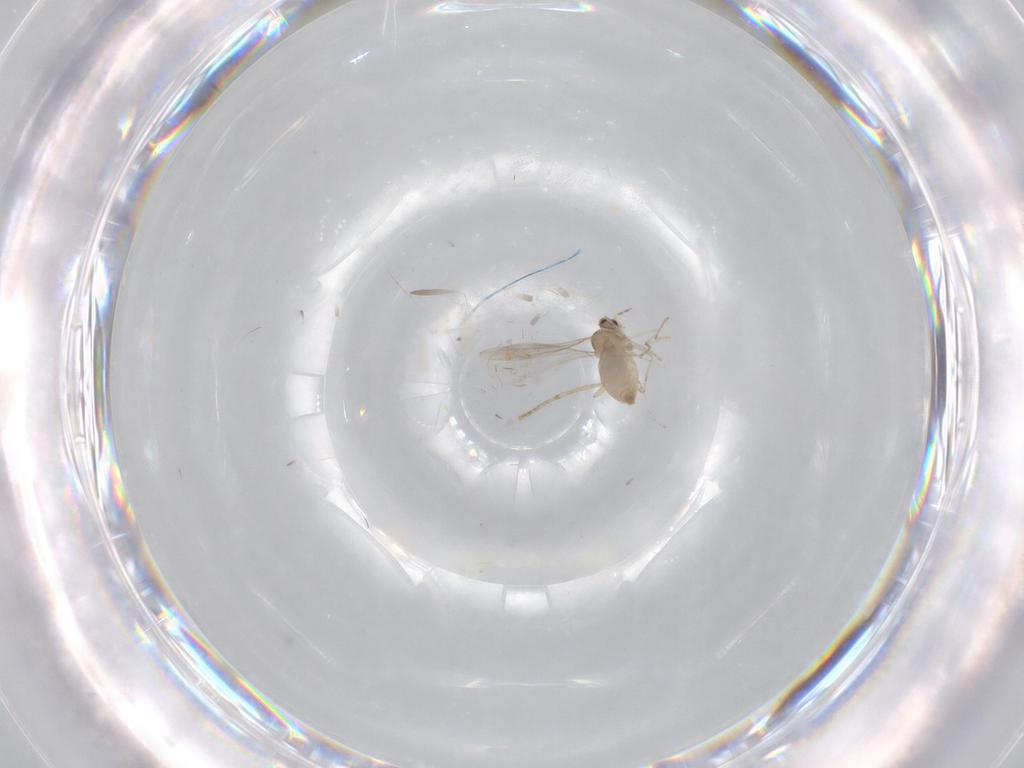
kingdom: Animalia
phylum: Arthropoda
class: Insecta
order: Diptera
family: Cecidomyiidae
